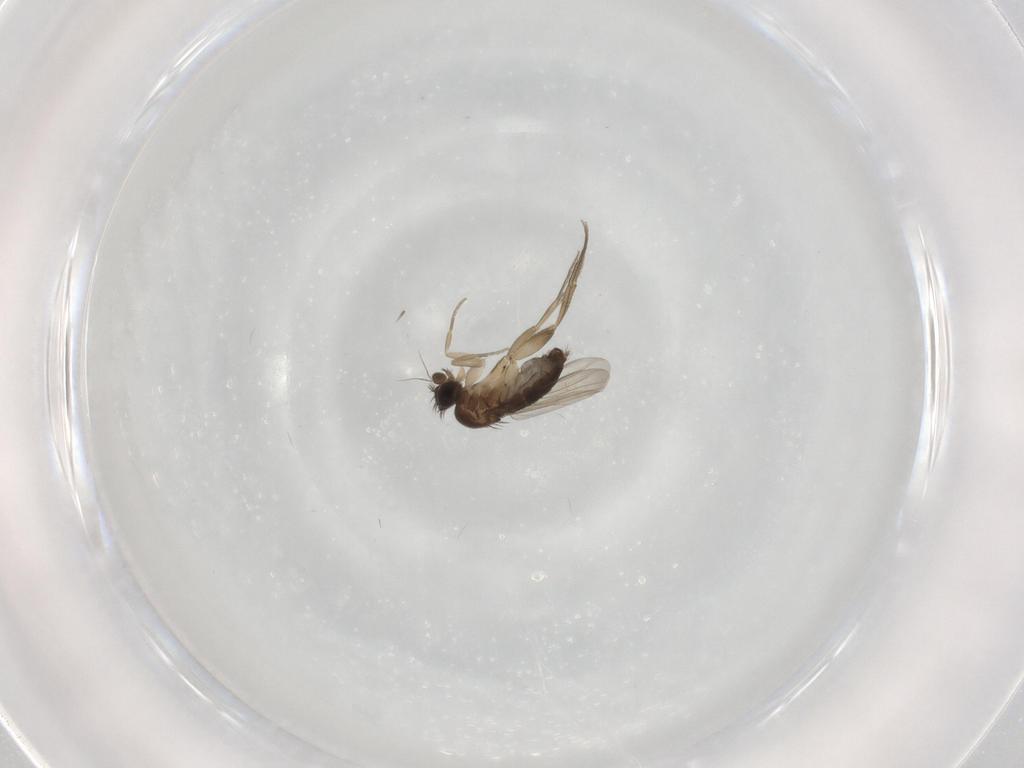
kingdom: Animalia
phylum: Arthropoda
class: Insecta
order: Diptera
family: Phoridae
